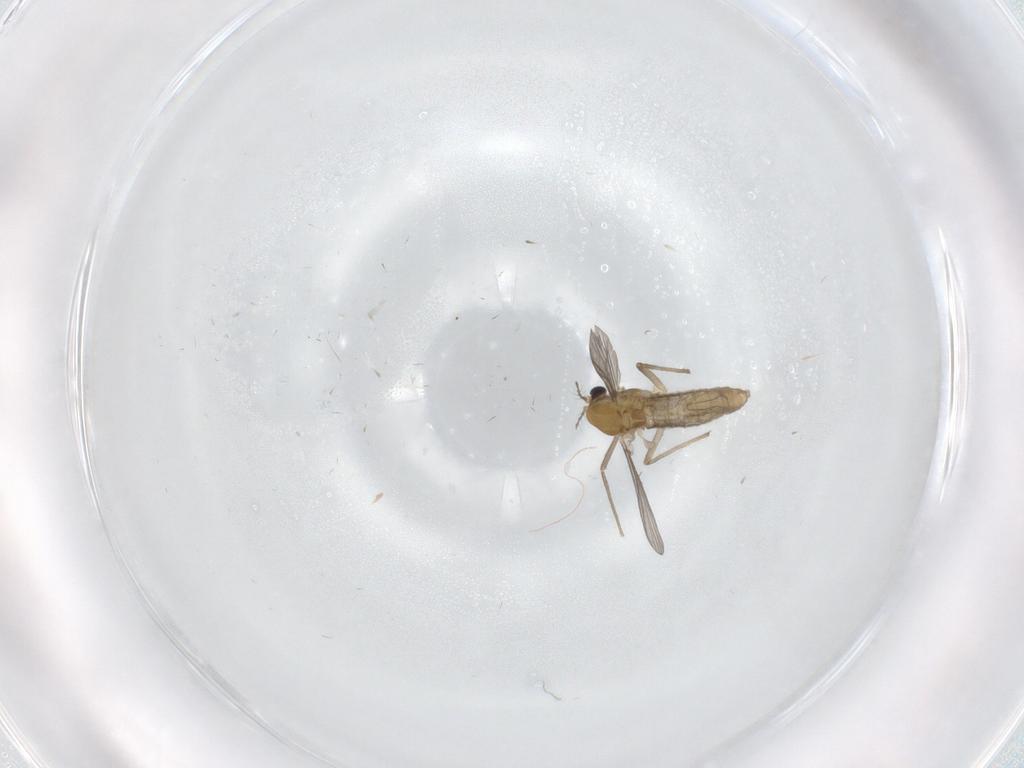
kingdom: Animalia
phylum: Arthropoda
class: Insecta
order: Diptera
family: Chironomidae
